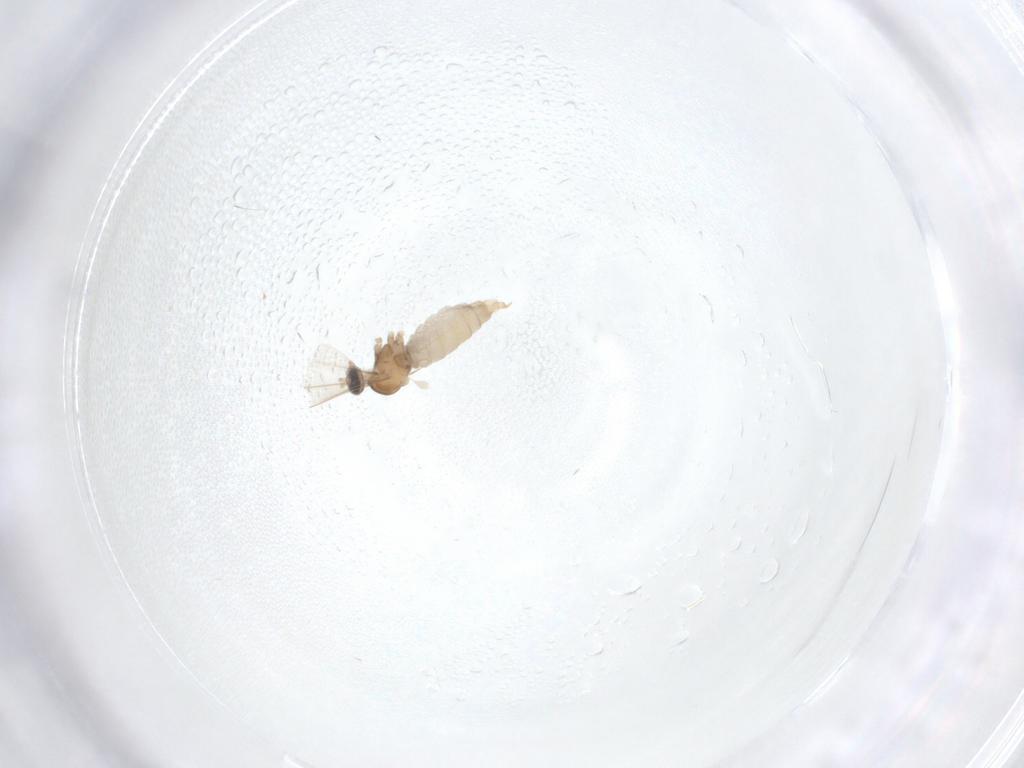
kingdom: Animalia
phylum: Arthropoda
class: Insecta
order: Diptera
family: Cecidomyiidae
